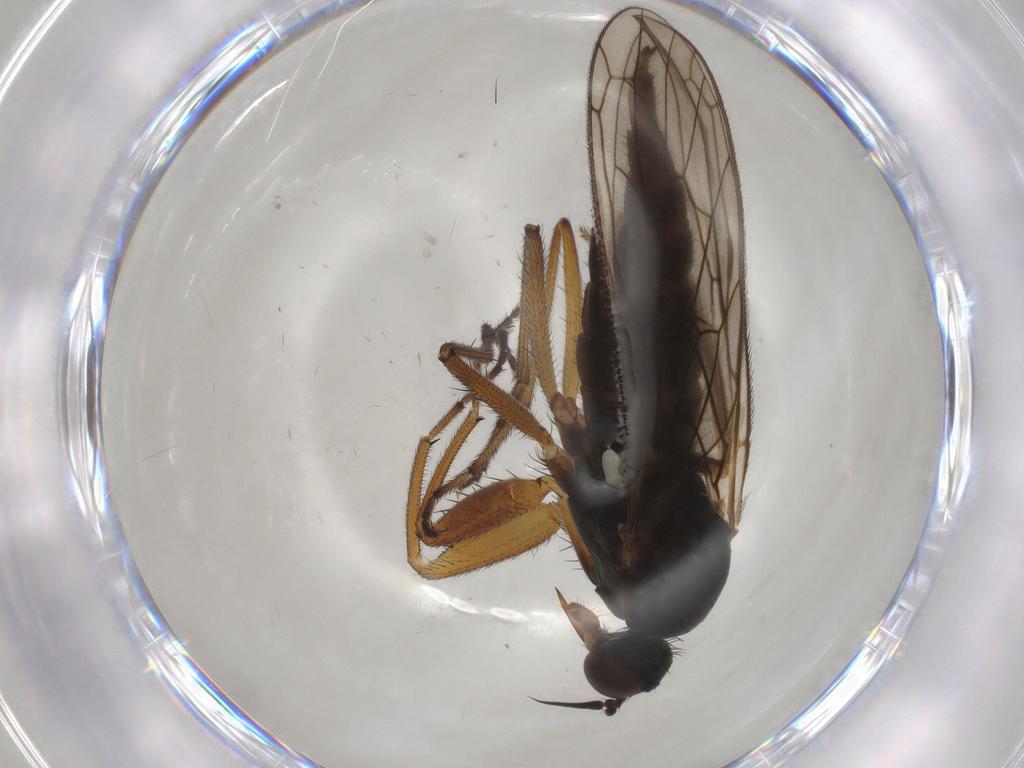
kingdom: Animalia
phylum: Arthropoda
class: Insecta
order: Diptera
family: Chironomidae
